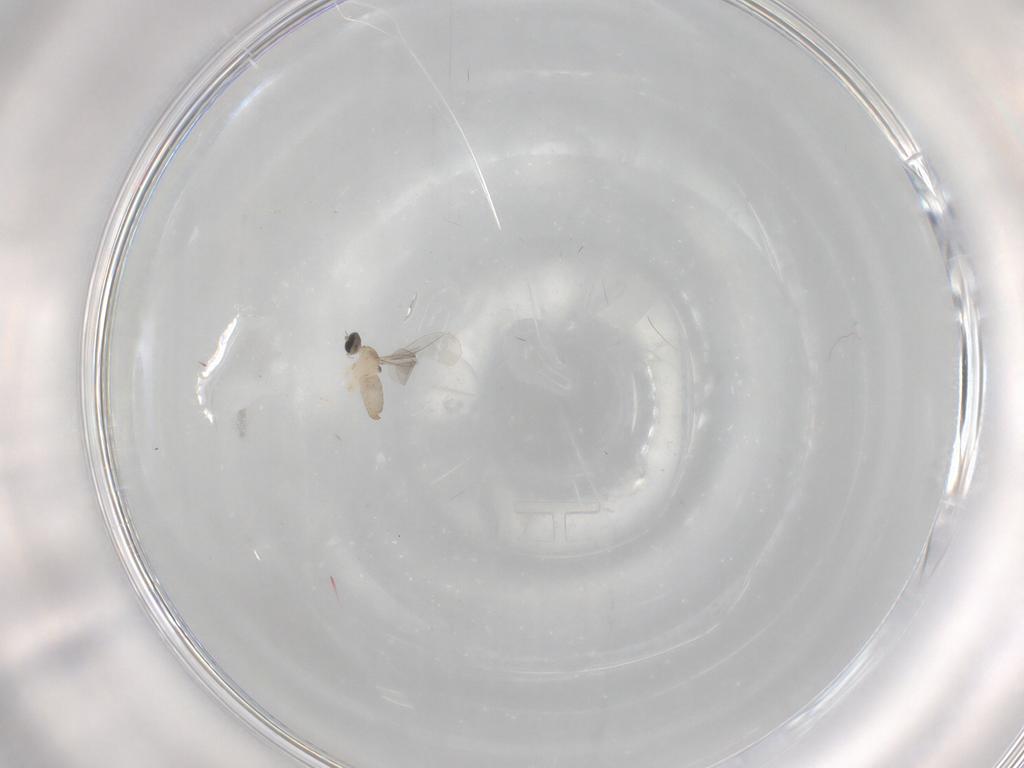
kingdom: Animalia
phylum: Arthropoda
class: Insecta
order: Diptera
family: Cecidomyiidae
